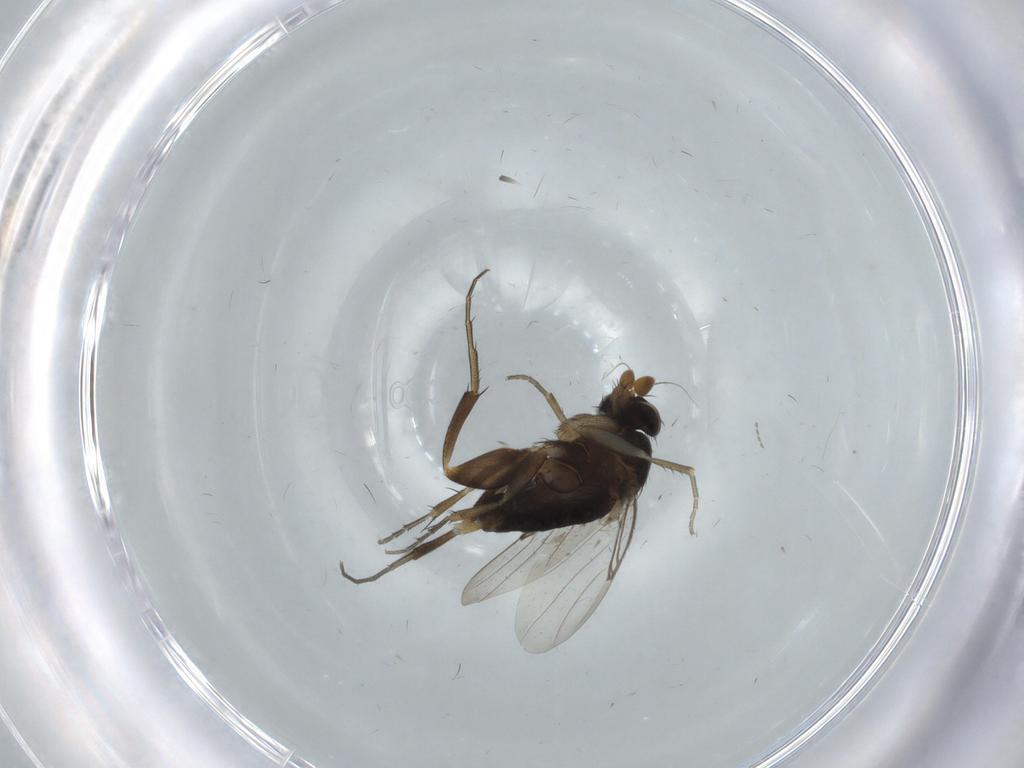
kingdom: Animalia
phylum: Arthropoda
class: Insecta
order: Diptera
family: Phoridae
